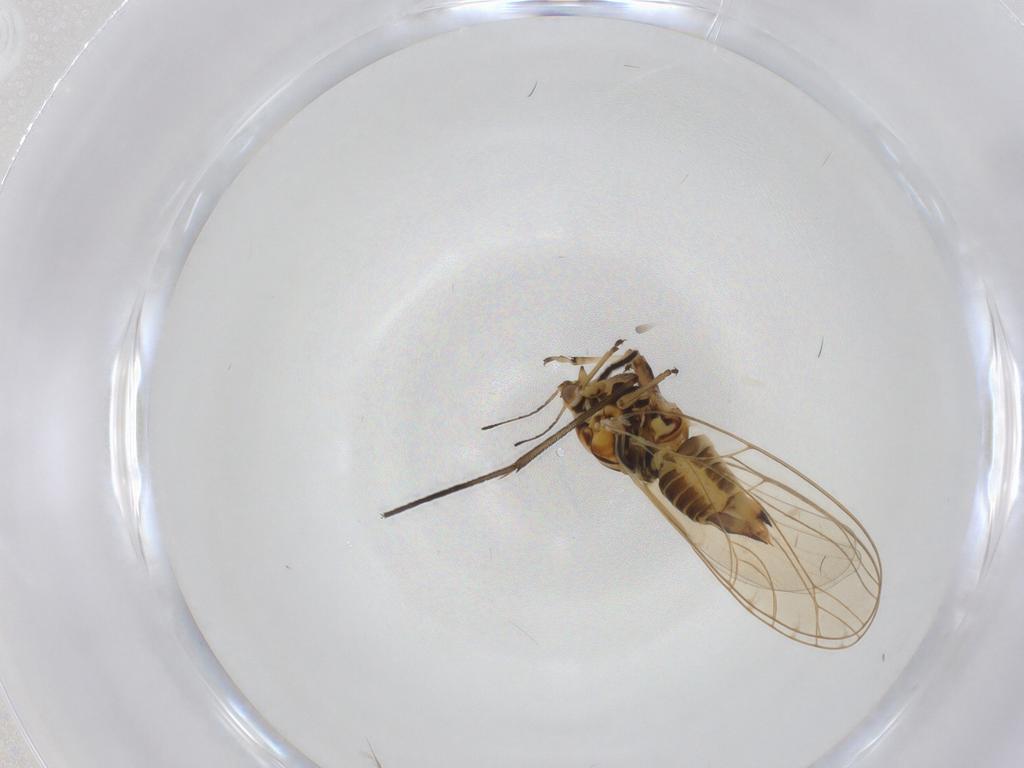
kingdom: Animalia
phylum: Arthropoda
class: Insecta
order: Hemiptera
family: Triozidae
